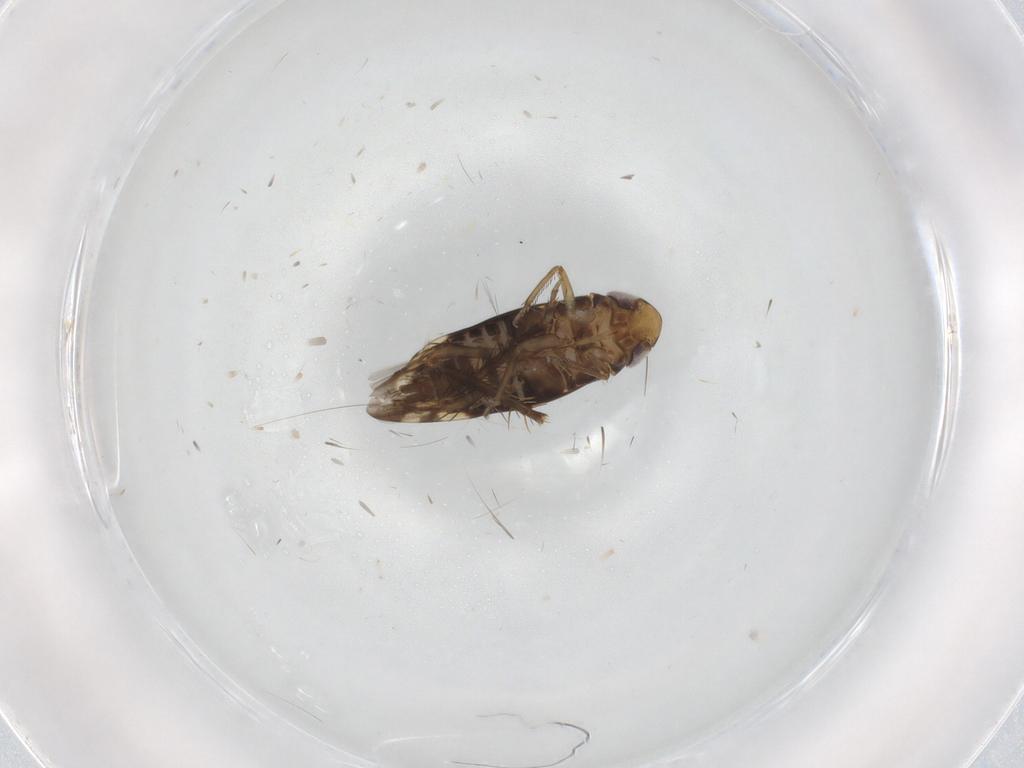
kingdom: Animalia
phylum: Arthropoda
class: Insecta
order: Hemiptera
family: Cicadellidae
